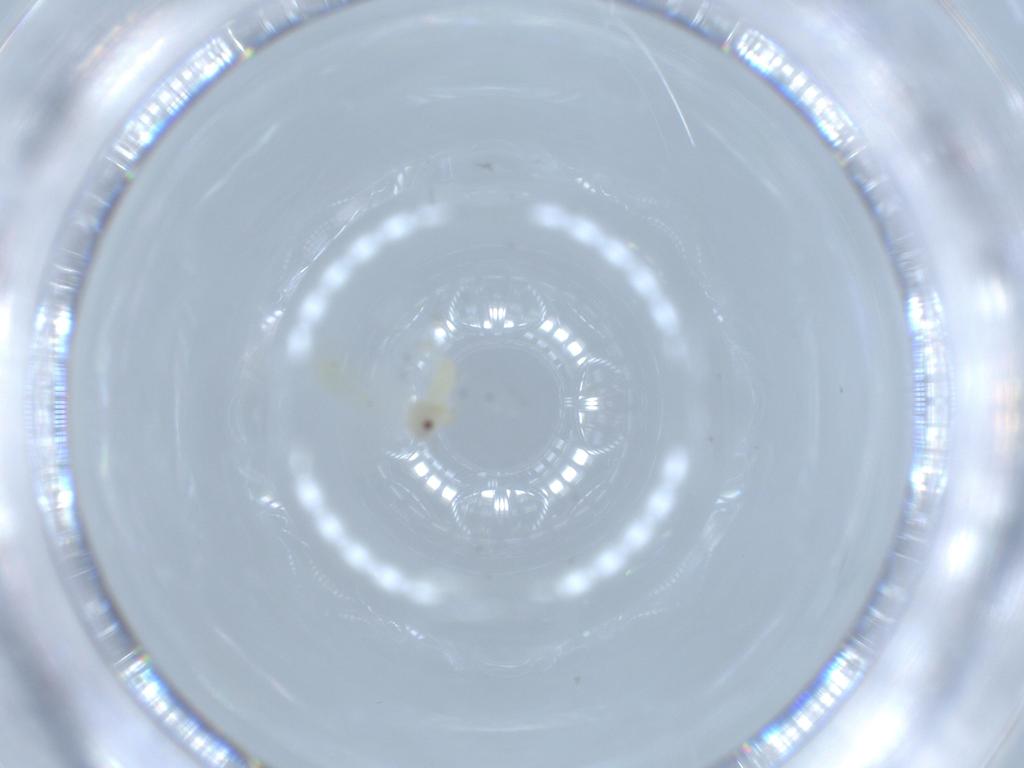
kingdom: Animalia
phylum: Arthropoda
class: Insecta
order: Hemiptera
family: Aleyrodidae
